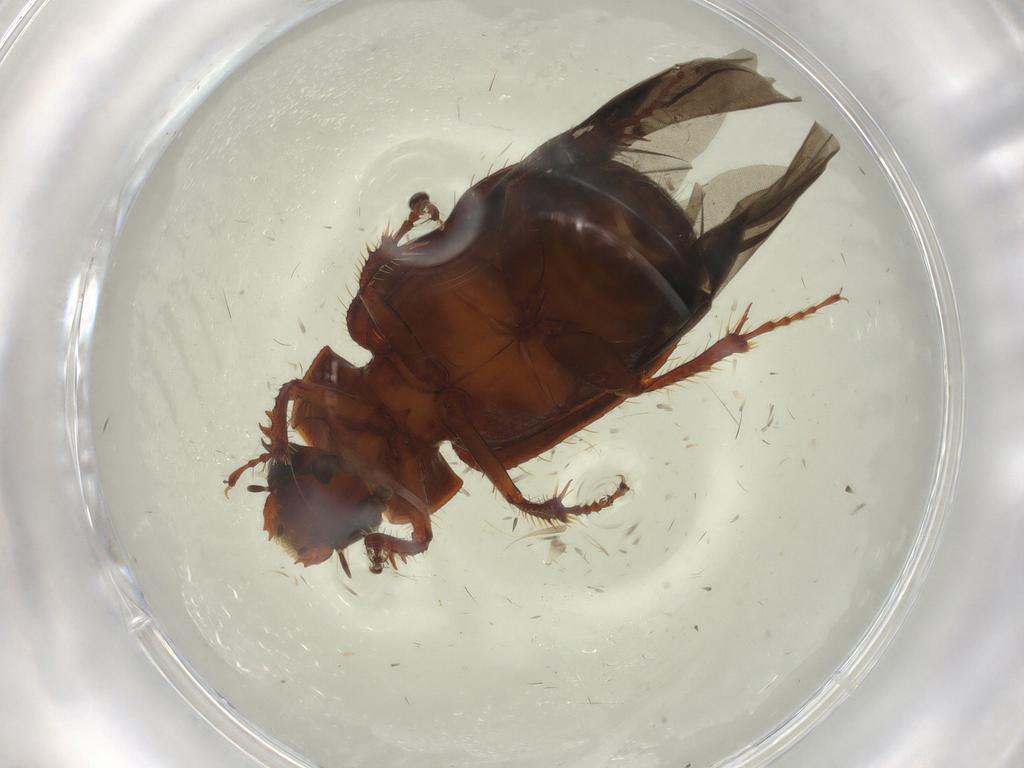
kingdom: Animalia
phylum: Arthropoda
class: Insecta
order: Coleoptera
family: Hybosoridae
